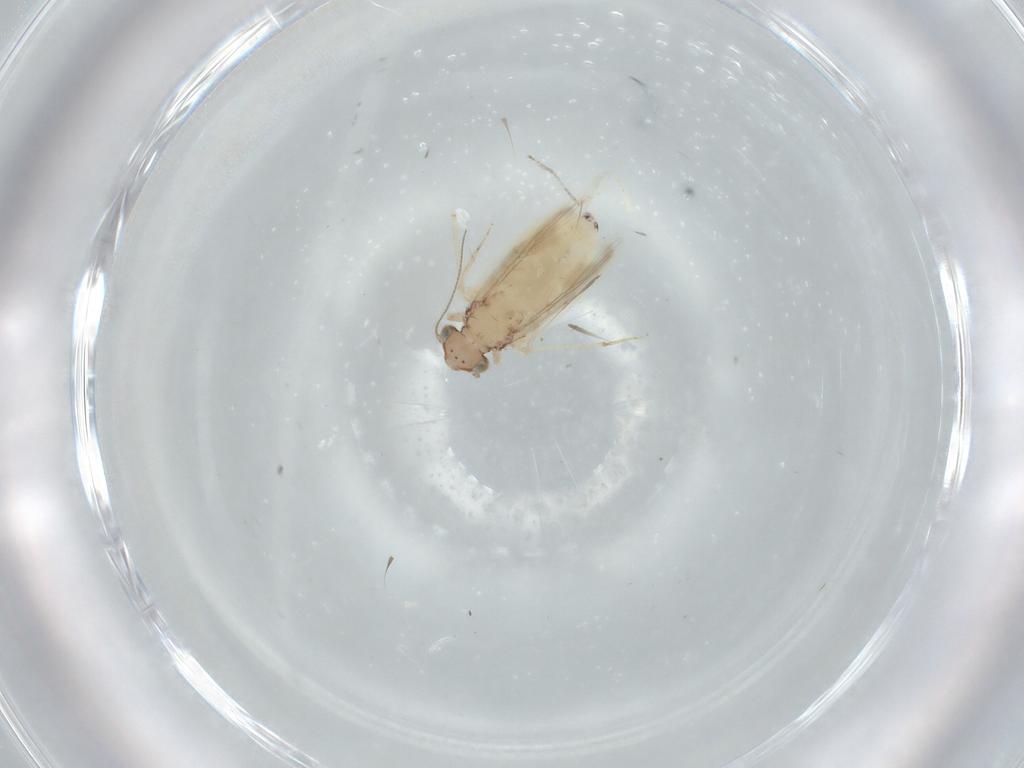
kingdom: Animalia
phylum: Arthropoda
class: Insecta
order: Psocodea
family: Lepidopsocidae
